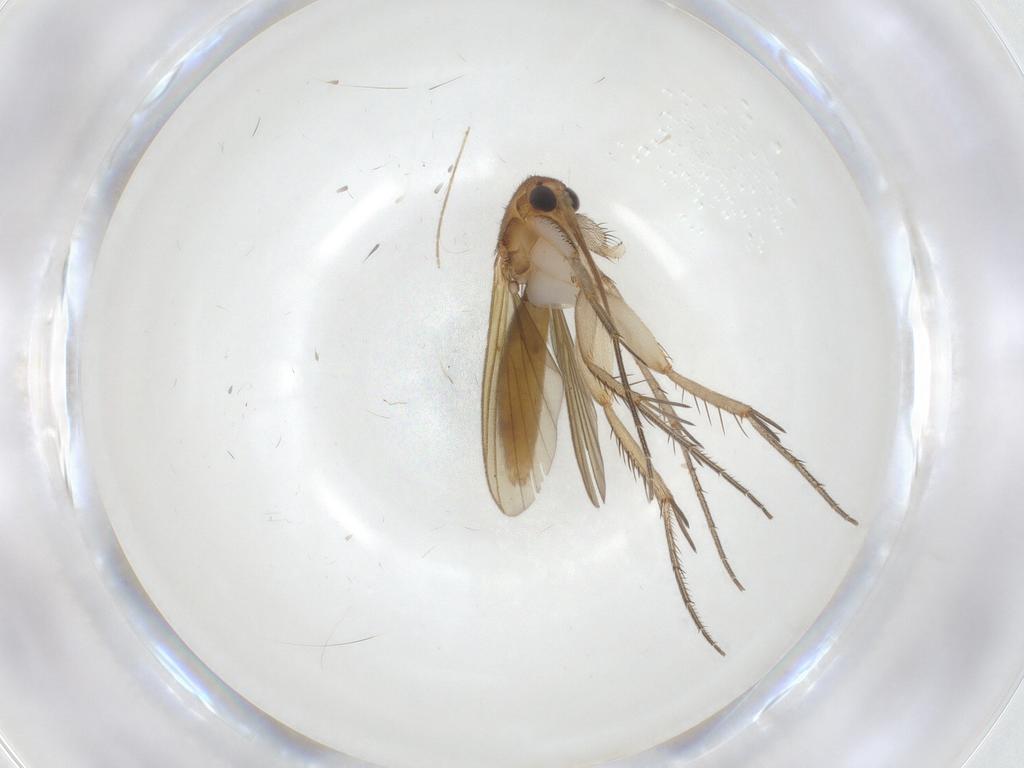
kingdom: Animalia
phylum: Arthropoda
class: Insecta
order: Diptera
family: Mycetophilidae
